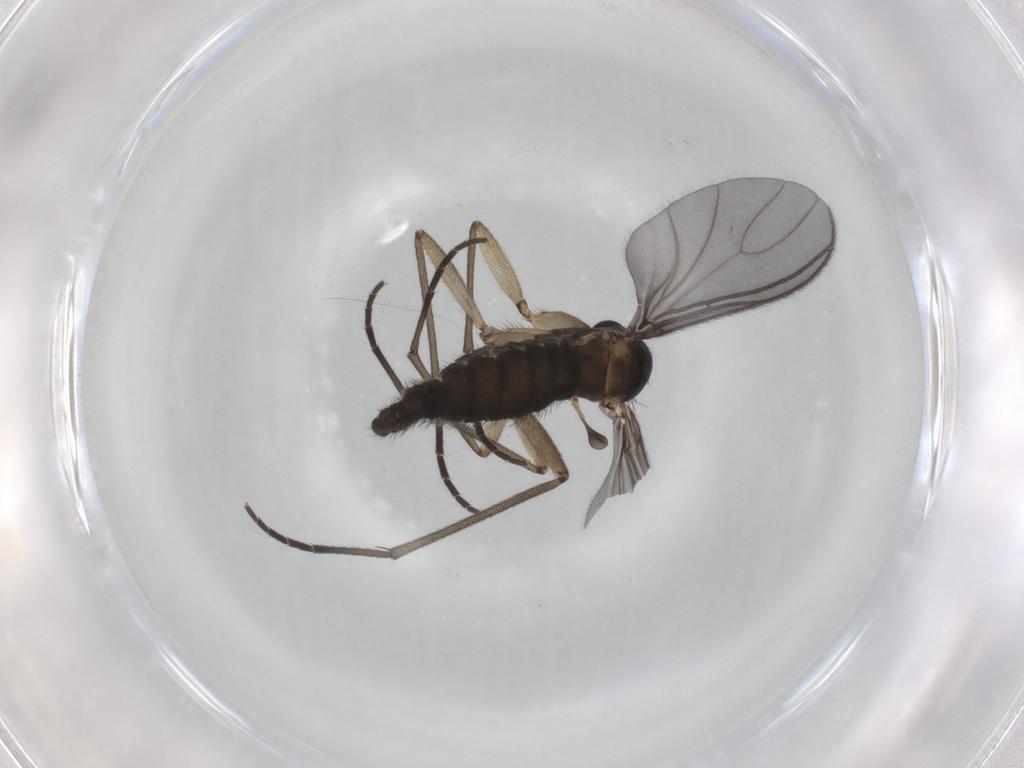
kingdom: Animalia
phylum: Arthropoda
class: Insecta
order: Diptera
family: Sciaridae
